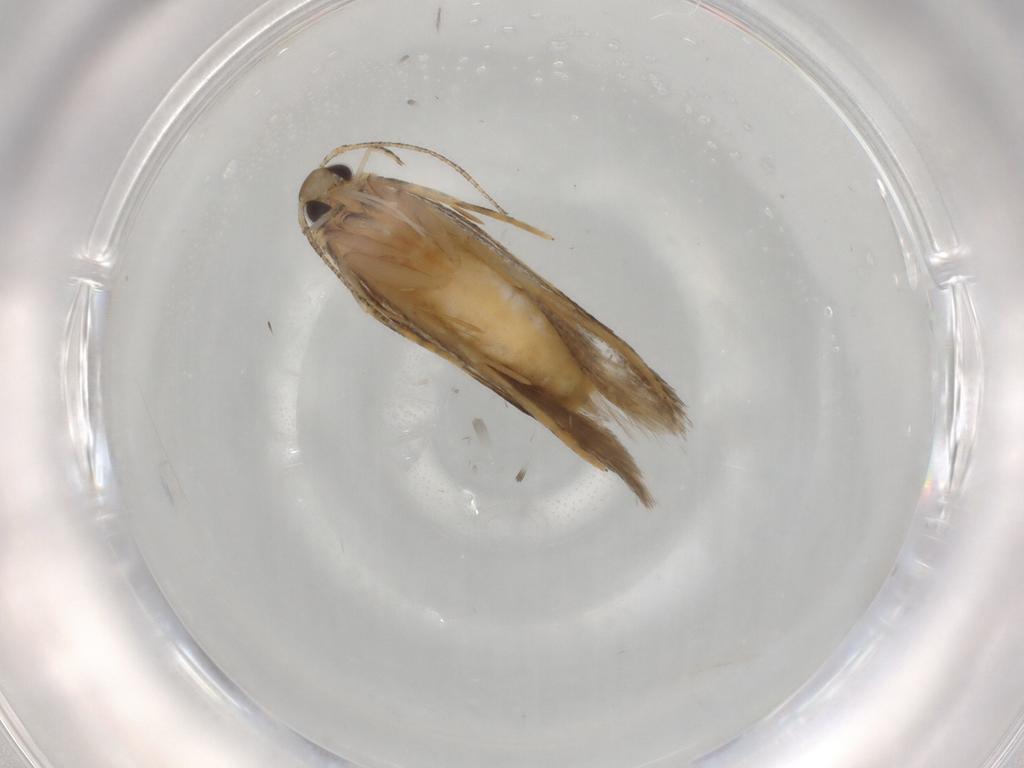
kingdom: Animalia
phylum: Arthropoda
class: Insecta
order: Lepidoptera
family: Autostichidae
